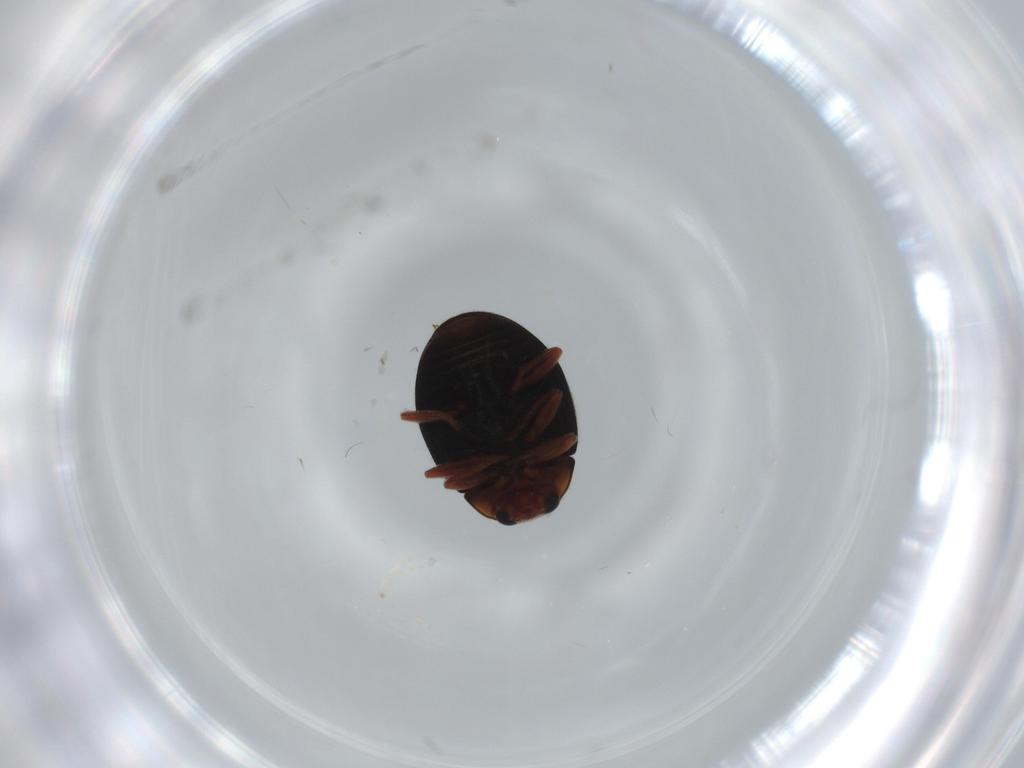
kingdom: Animalia
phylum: Arthropoda
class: Insecta
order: Coleoptera
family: Coccinellidae
